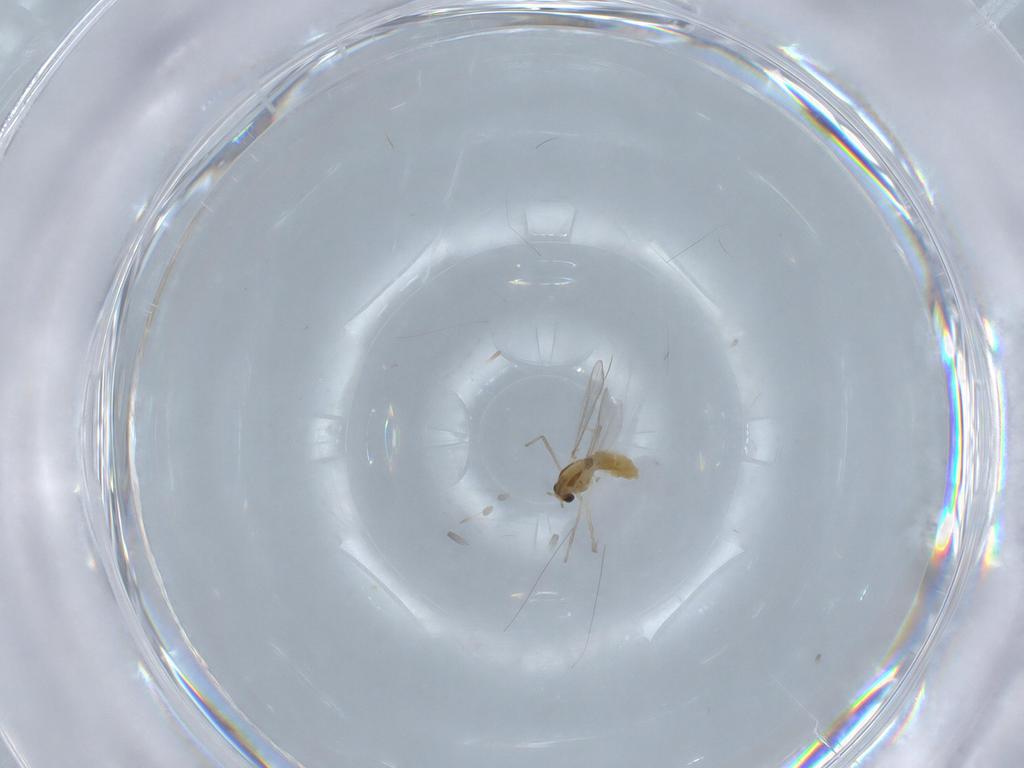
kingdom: Animalia
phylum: Arthropoda
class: Insecta
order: Diptera
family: Chironomidae
